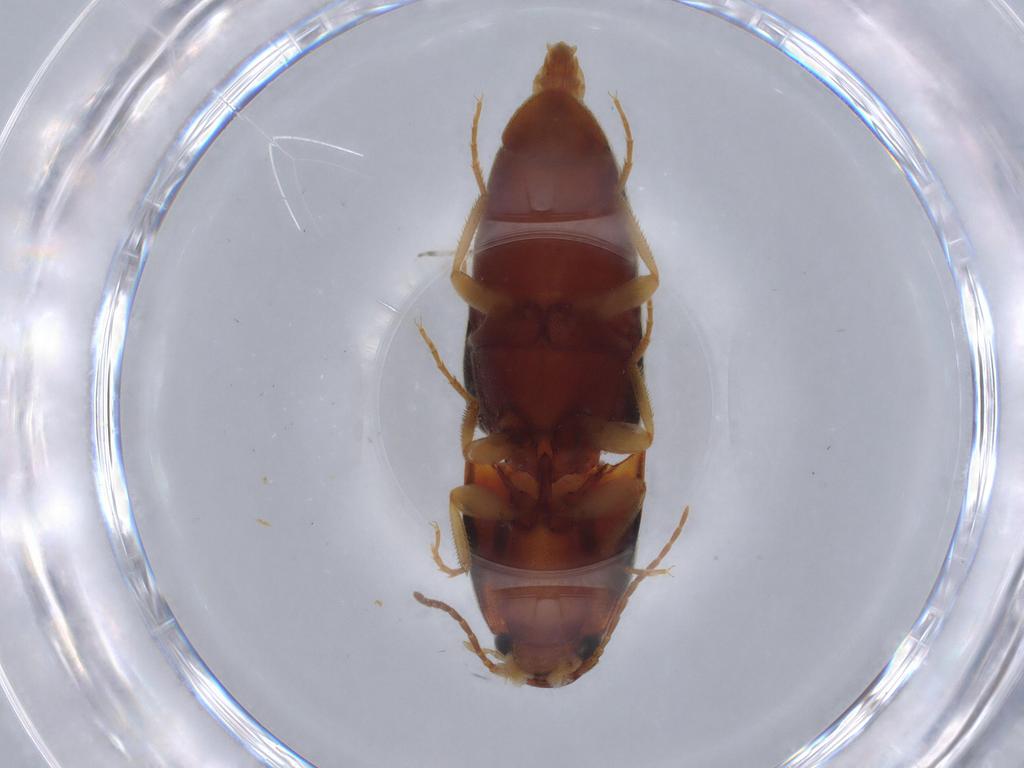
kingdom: Animalia
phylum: Arthropoda
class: Insecta
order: Coleoptera
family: Elateridae
